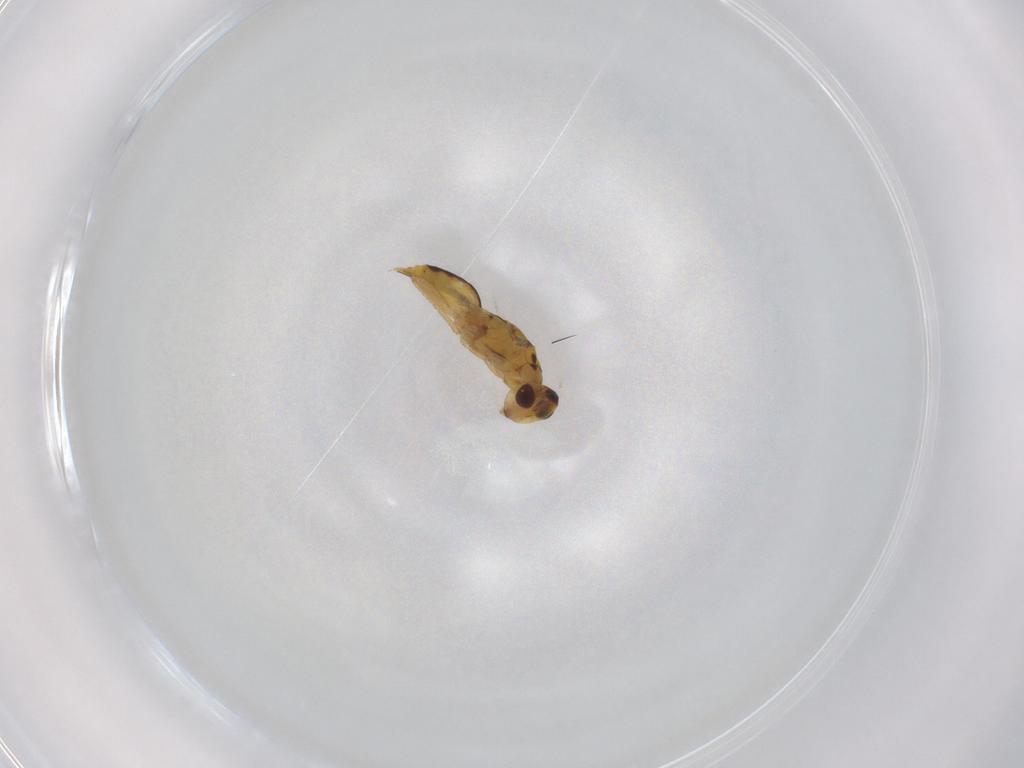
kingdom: Animalia
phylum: Arthropoda
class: Insecta
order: Hymenoptera
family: Eulophidae
